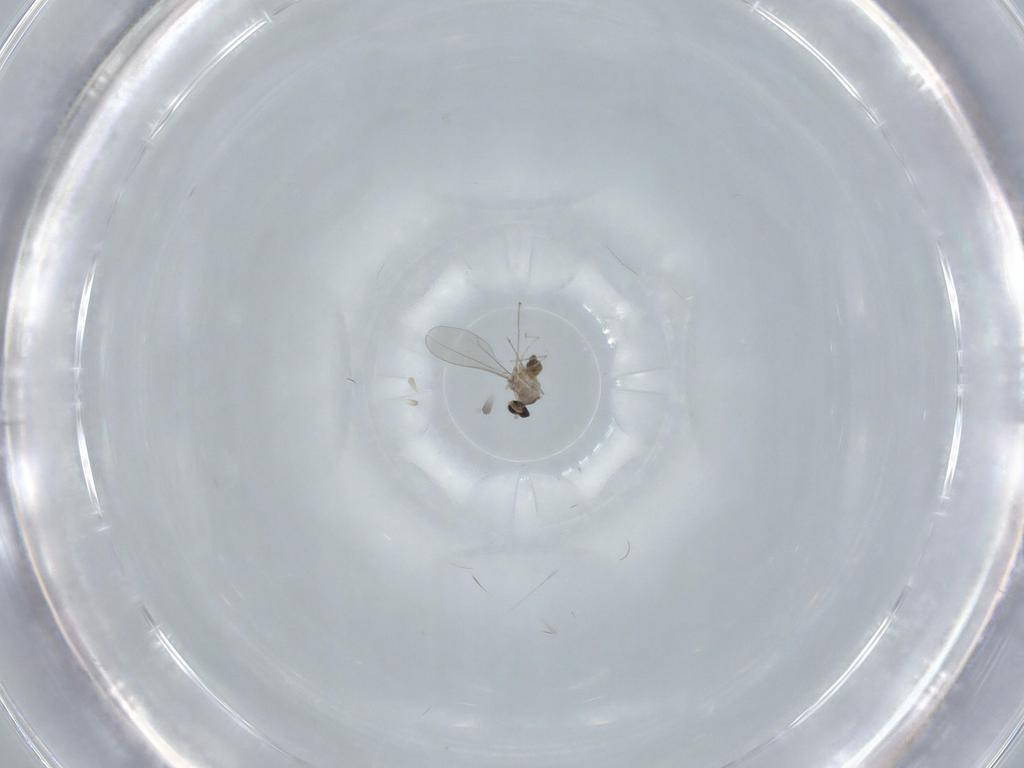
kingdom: Animalia
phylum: Arthropoda
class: Insecta
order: Diptera
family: Cecidomyiidae
